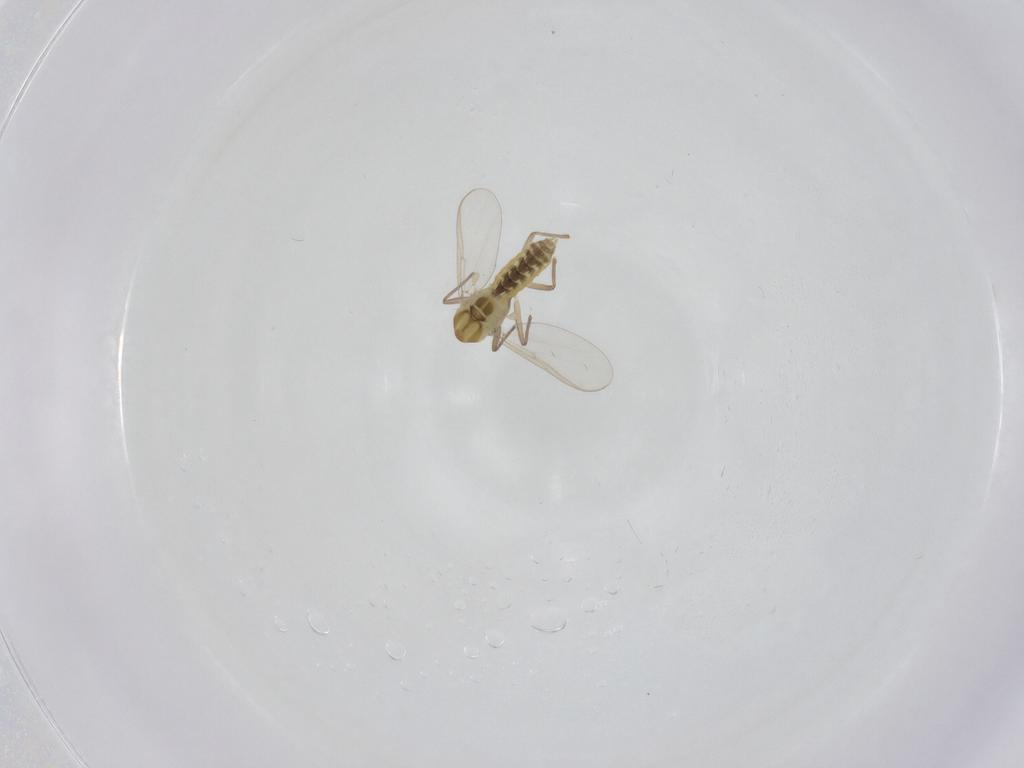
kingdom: Animalia
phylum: Arthropoda
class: Insecta
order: Diptera
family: Chironomidae
